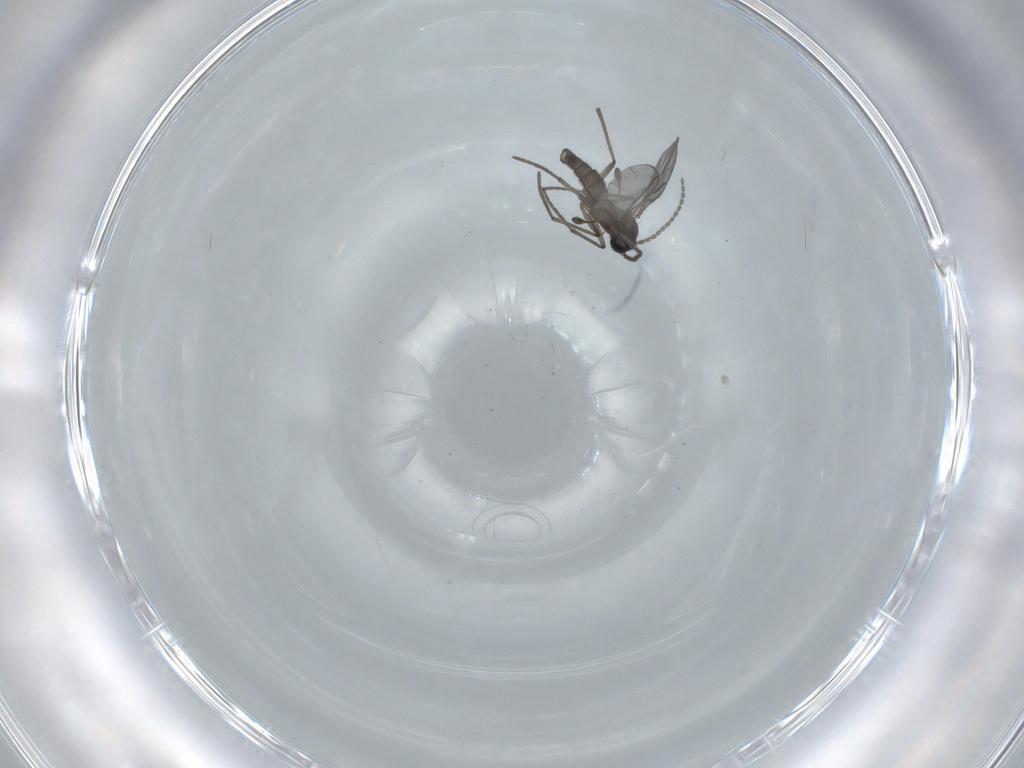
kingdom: Animalia
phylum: Arthropoda
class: Insecta
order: Diptera
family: Sciaridae
